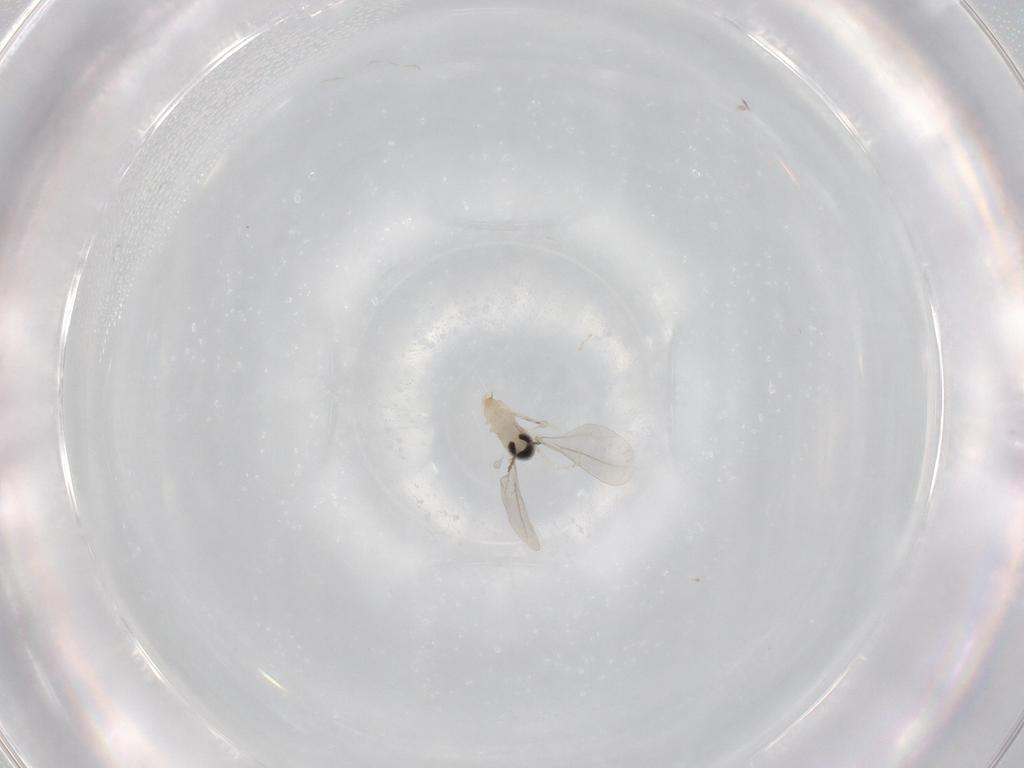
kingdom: Animalia
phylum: Arthropoda
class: Insecta
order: Diptera
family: Cecidomyiidae
